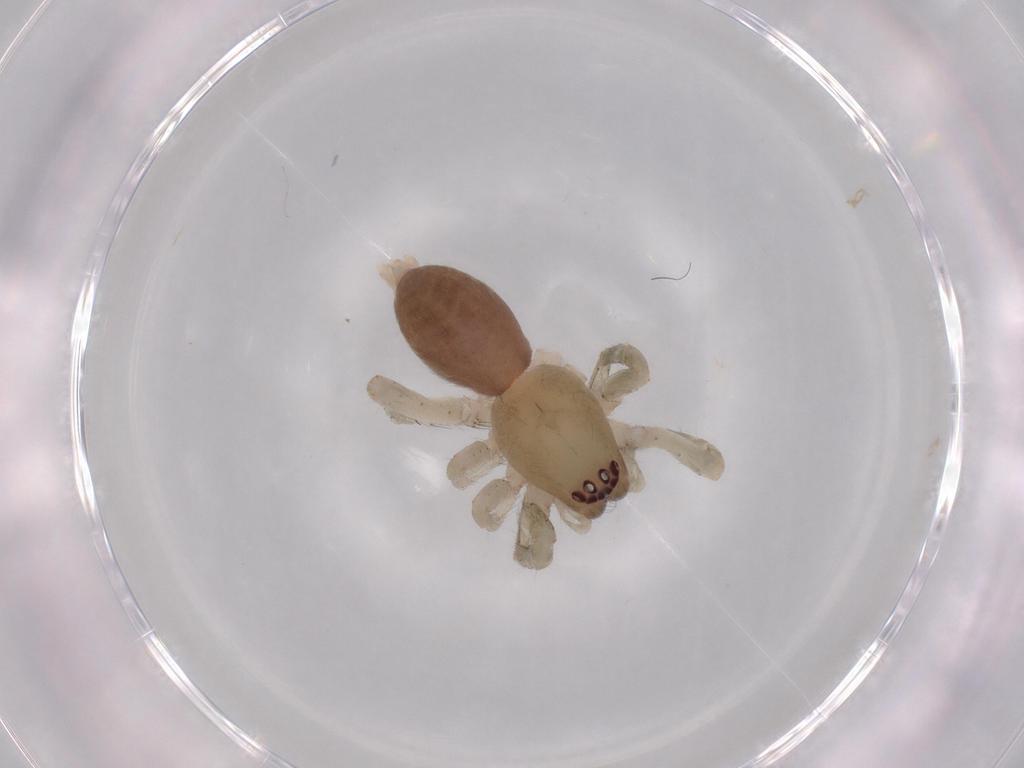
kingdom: Animalia
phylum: Arthropoda
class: Arachnida
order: Araneae
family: Anyphaenidae
